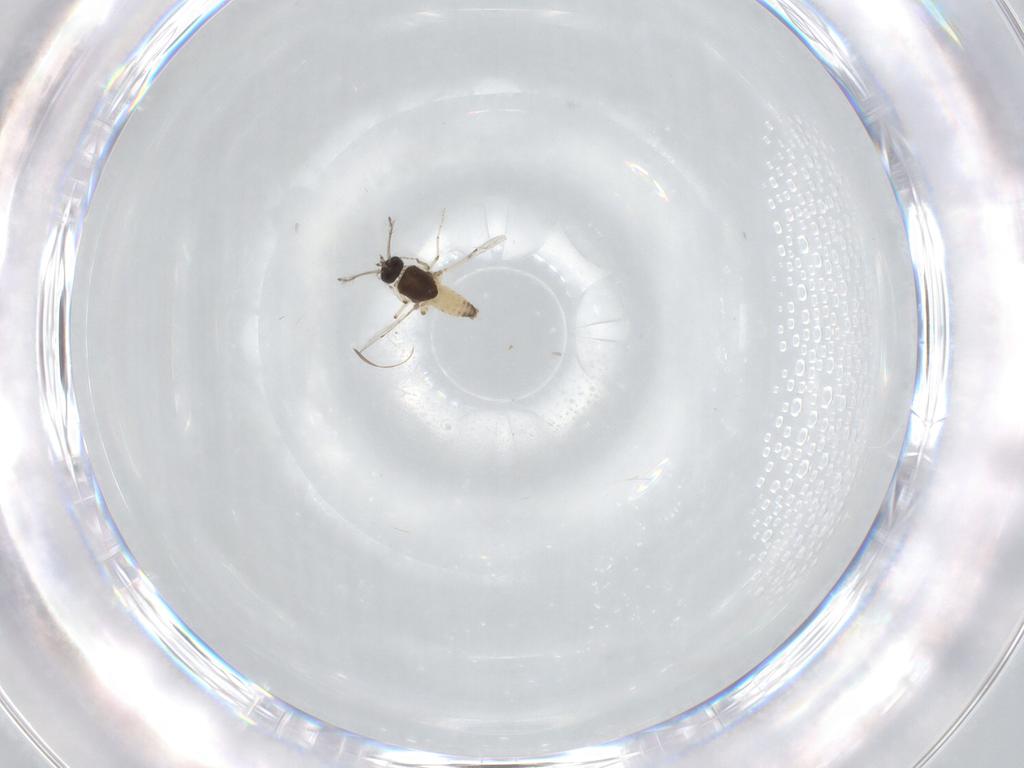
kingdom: Animalia
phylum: Arthropoda
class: Insecta
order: Diptera
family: Ceratopogonidae
